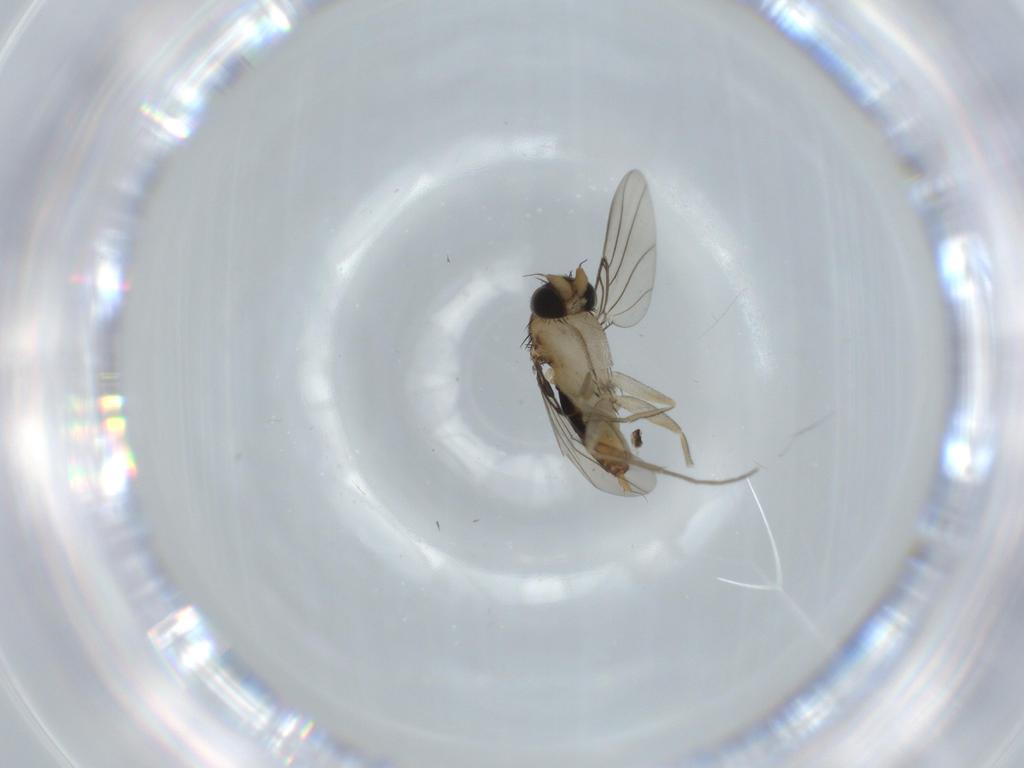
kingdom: Animalia
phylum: Arthropoda
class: Insecta
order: Diptera
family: Phoridae
